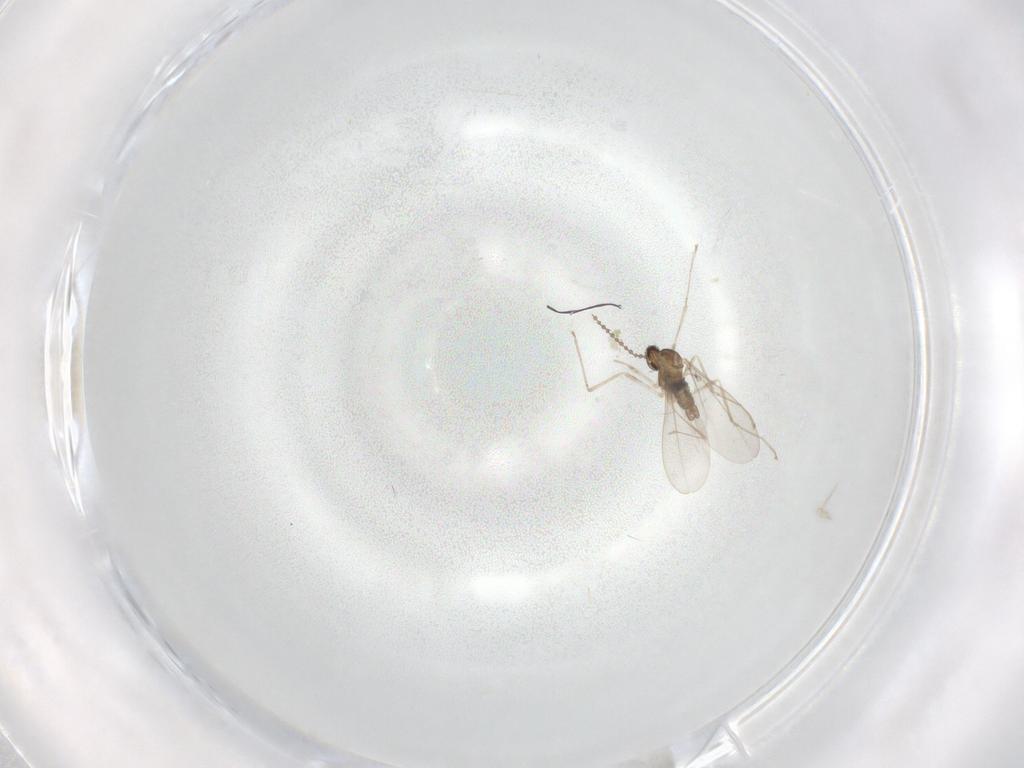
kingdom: Animalia
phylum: Arthropoda
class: Insecta
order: Diptera
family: Cecidomyiidae
